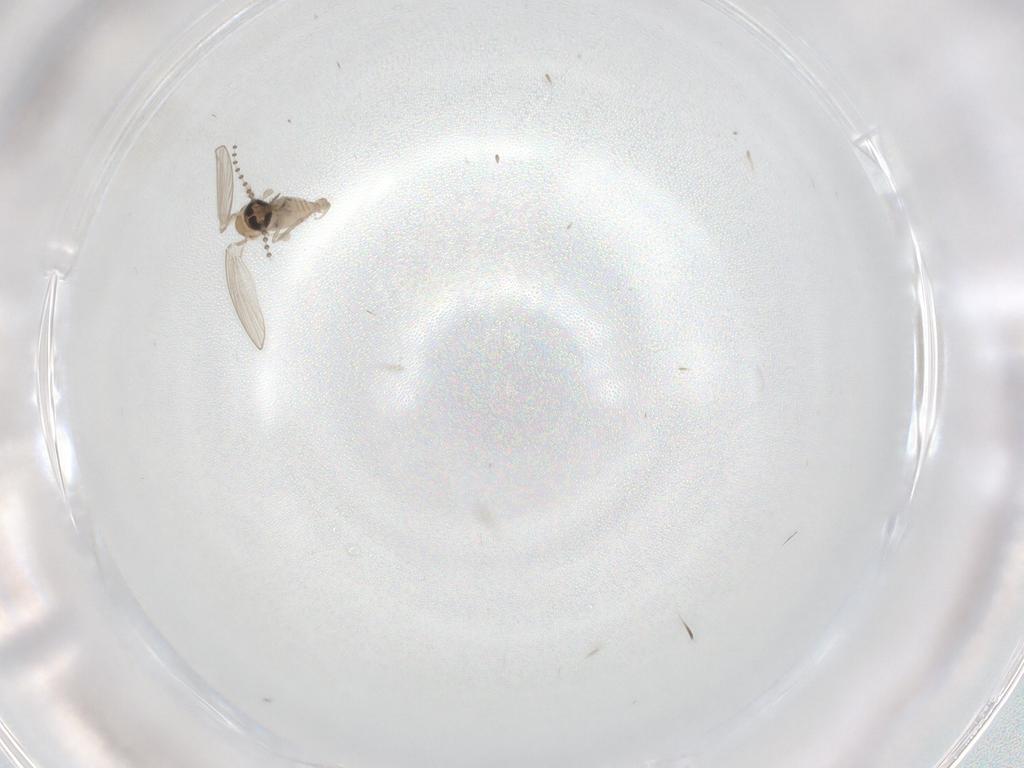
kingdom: Animalia
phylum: Arthropoda
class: Insecta
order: Diptera
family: Psychodidae
